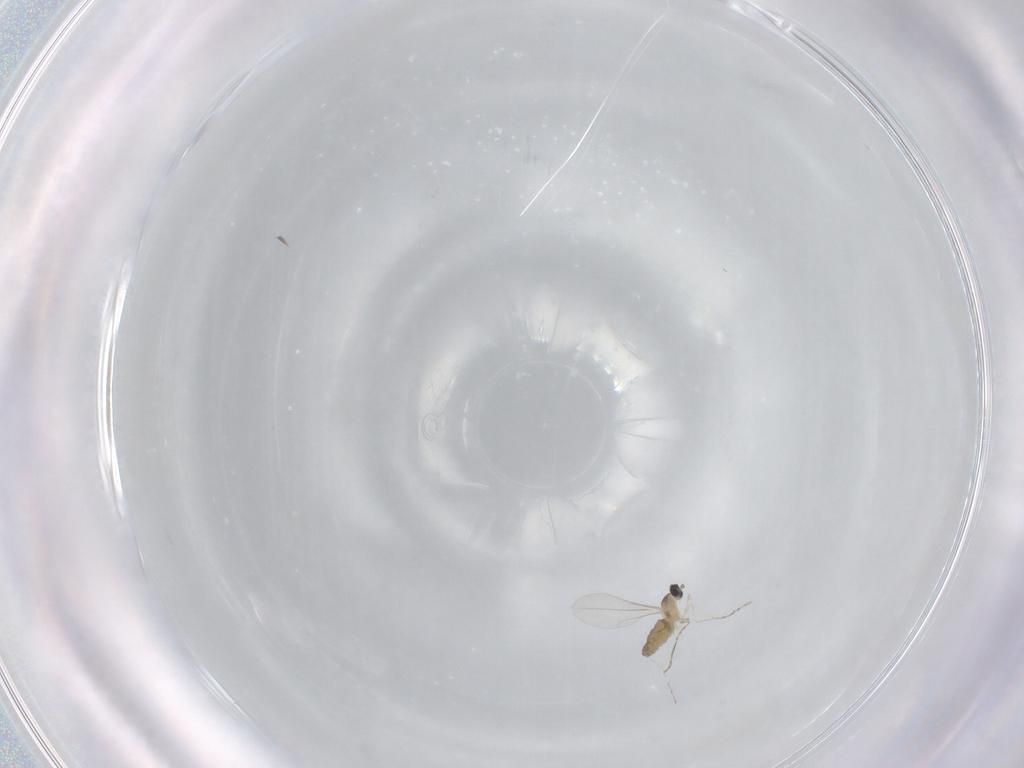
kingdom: Animalia
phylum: Arthropoda
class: Insecta
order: Diptera
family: Cecidomyiidae
